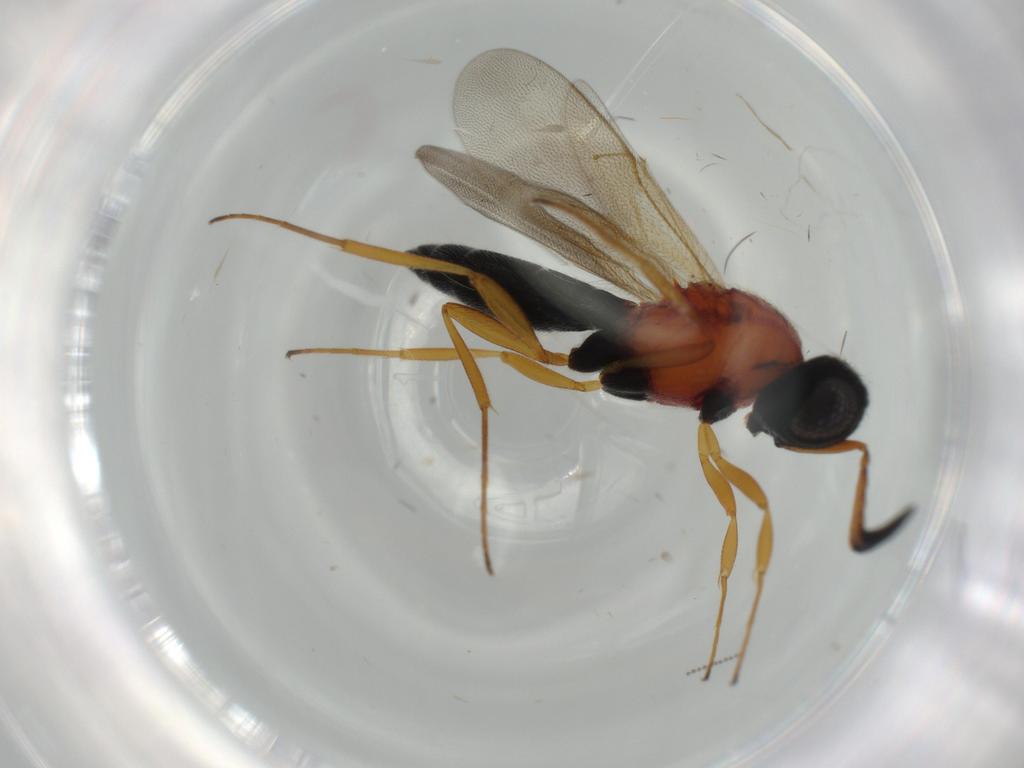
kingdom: Animalia
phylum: Arthropoda
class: Insecta
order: Hymenoptera
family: Scelionidae
